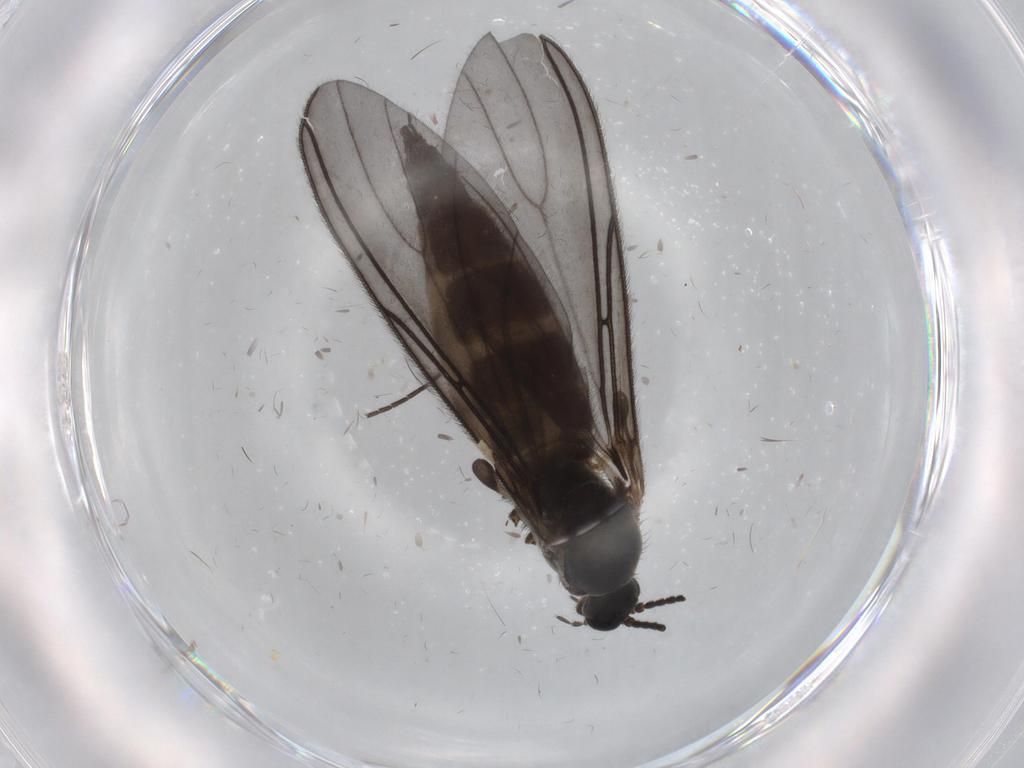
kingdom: Animalia
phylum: Arthropoda
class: Insecta
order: Diptera
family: Sciaridae
